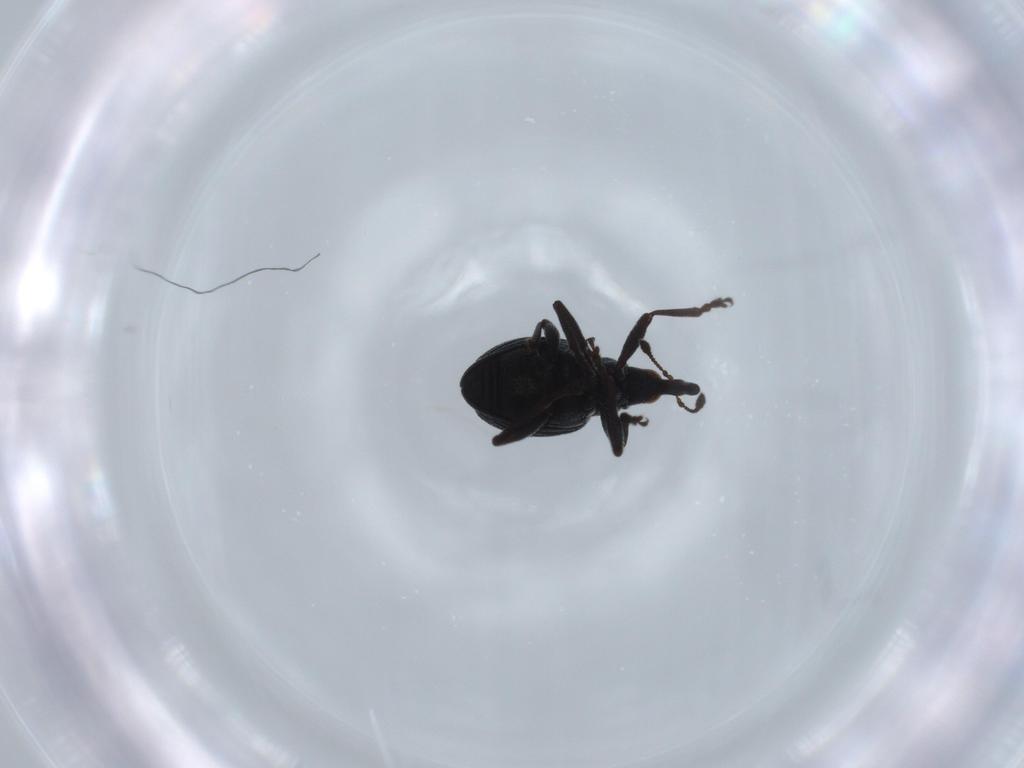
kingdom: Animalia
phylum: Arthropoda
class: Insecta
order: Coleoptera
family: Brentidae
